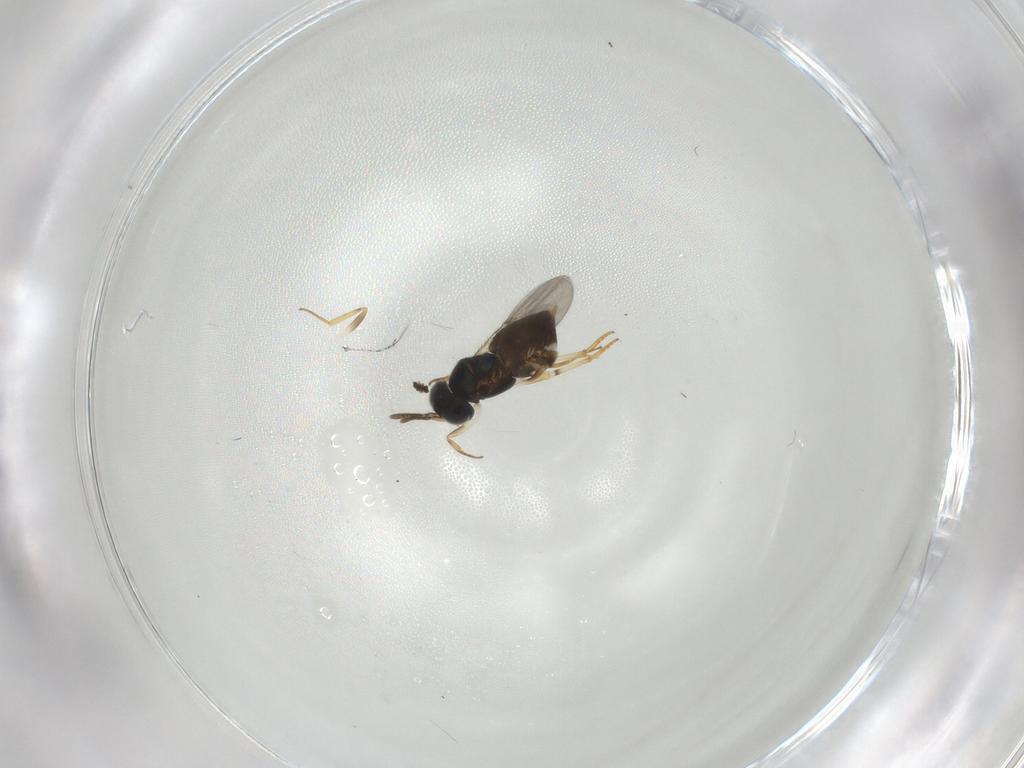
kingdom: Animalia
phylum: Arthropoda
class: Insecta
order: Hymenoptera
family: Encyrtidae
